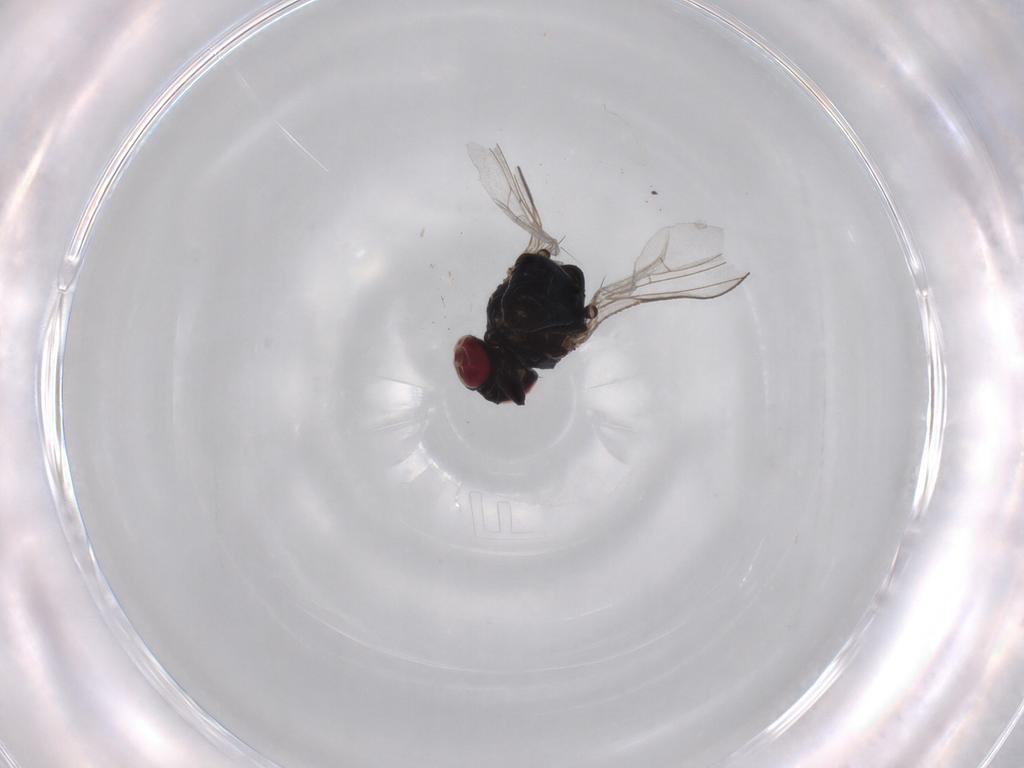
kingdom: Animalia
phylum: Arthropoda
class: Insecta
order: Diptera
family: Agromyzidae
